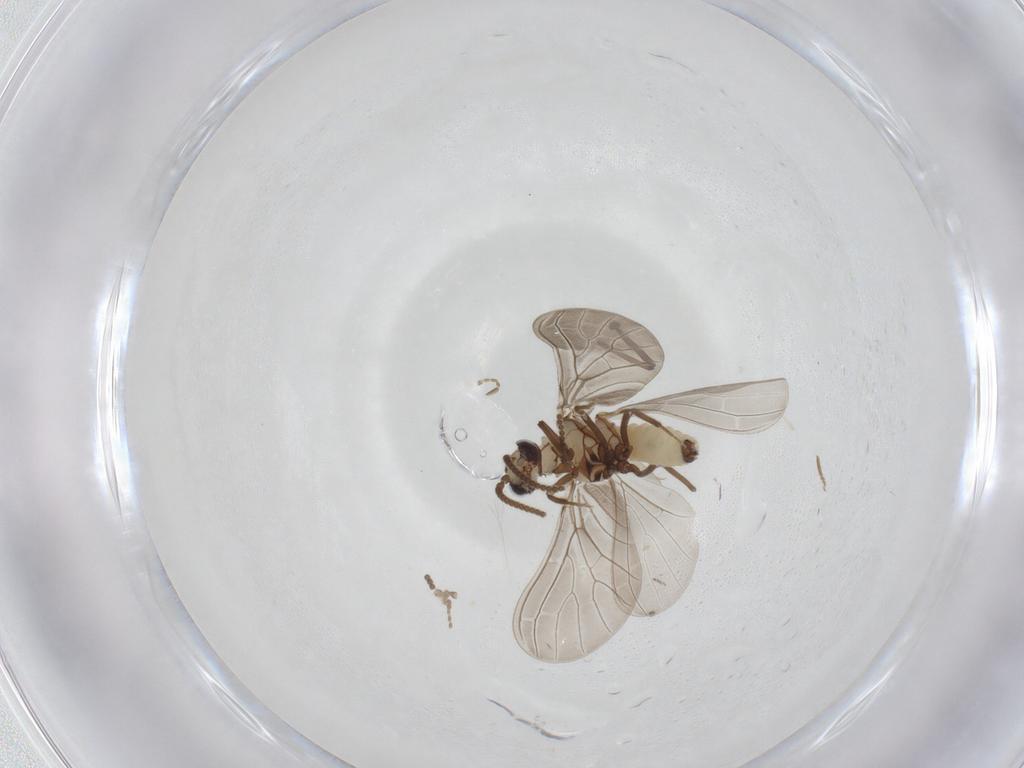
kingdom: Animalia
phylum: Arthropoda
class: Insecta
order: Neuroptera
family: Coniopterygidae
